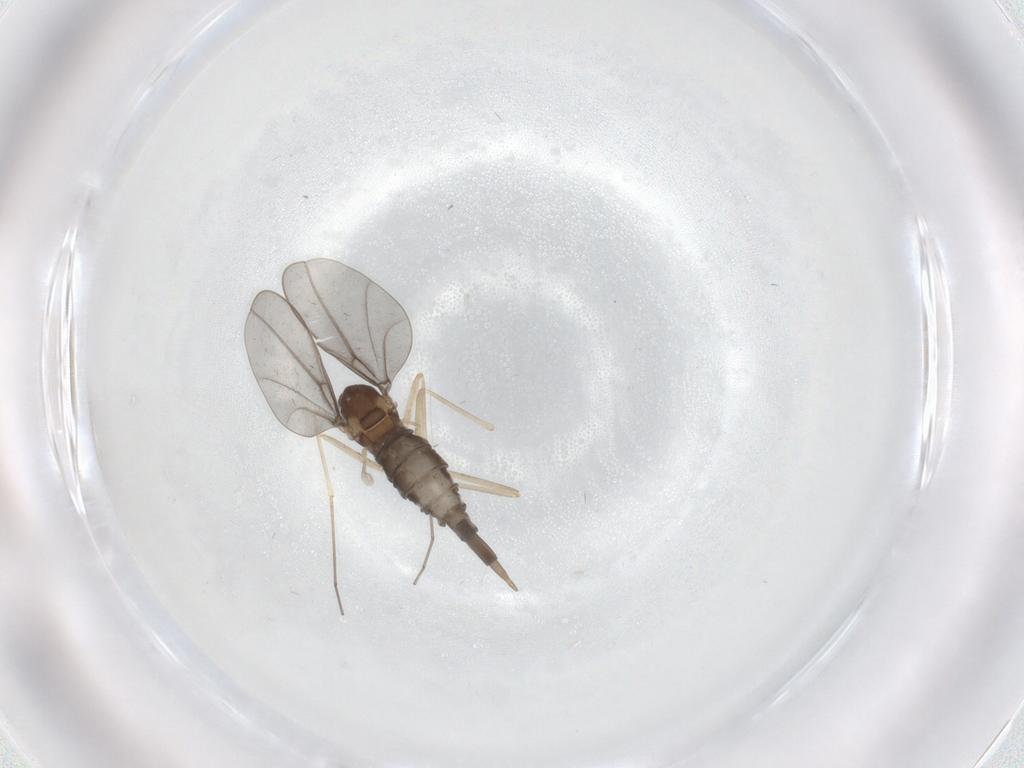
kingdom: Animalia
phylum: Arthropoda
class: Insecta
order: Diptera
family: Cecidomyiidae
